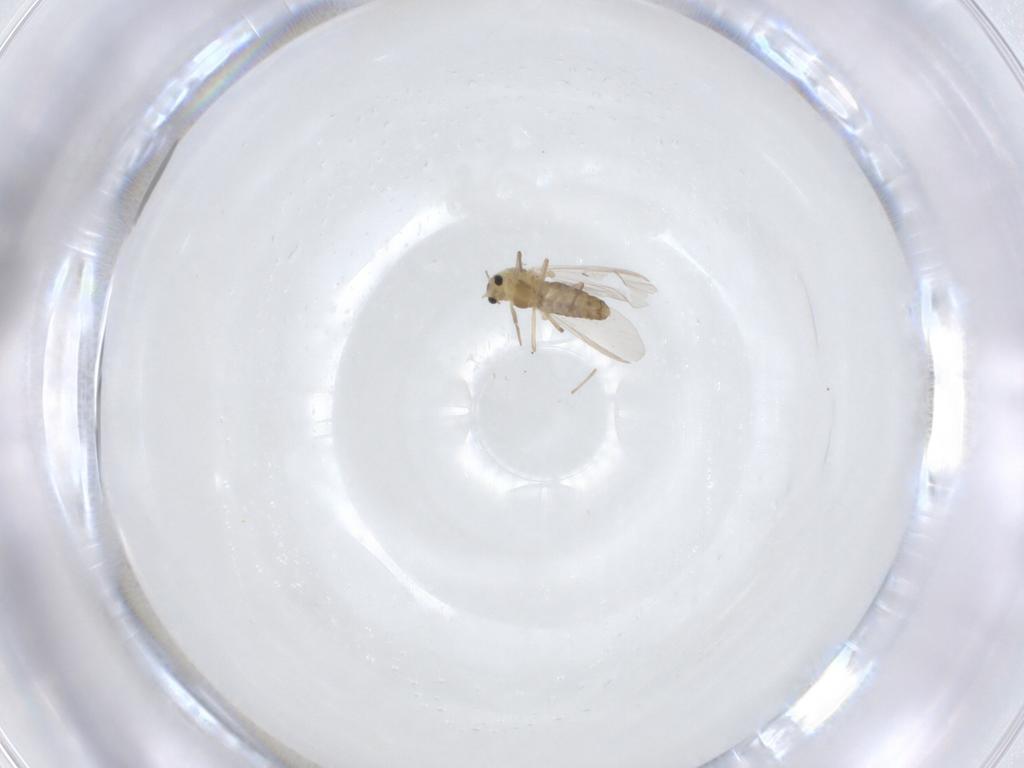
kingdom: Animalia
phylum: Arthropoda
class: Insecta
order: Diptera
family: Chironomidae
